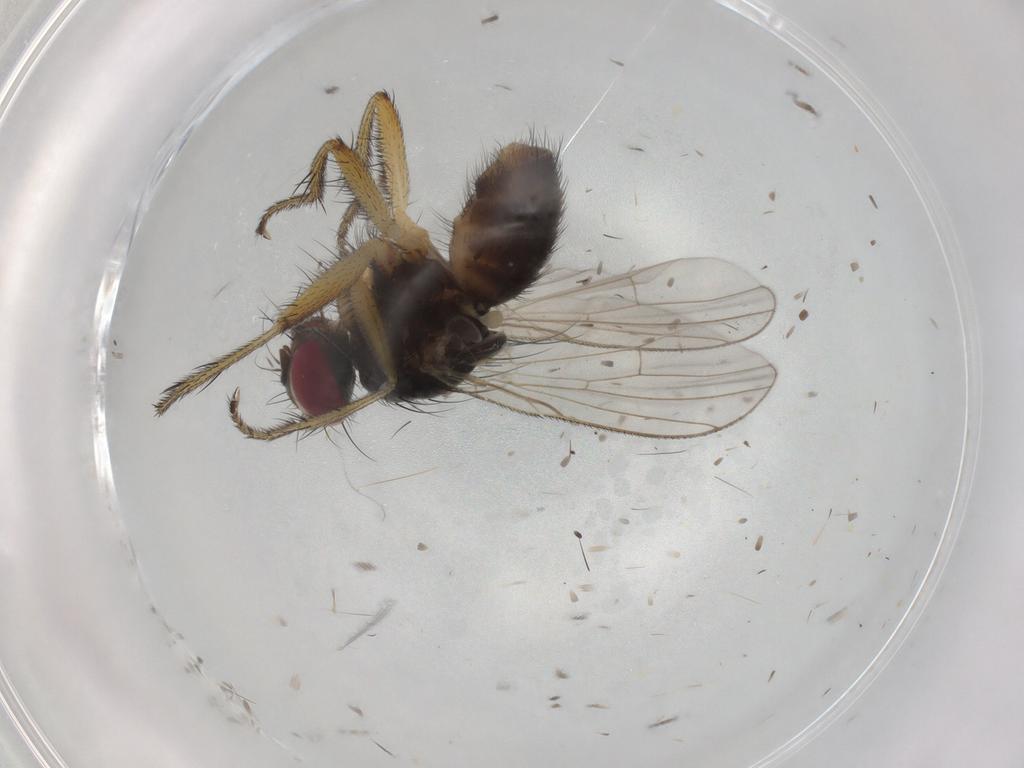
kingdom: Animalia
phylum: Arthropoda
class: Insecta
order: Diptera
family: Muscidae
